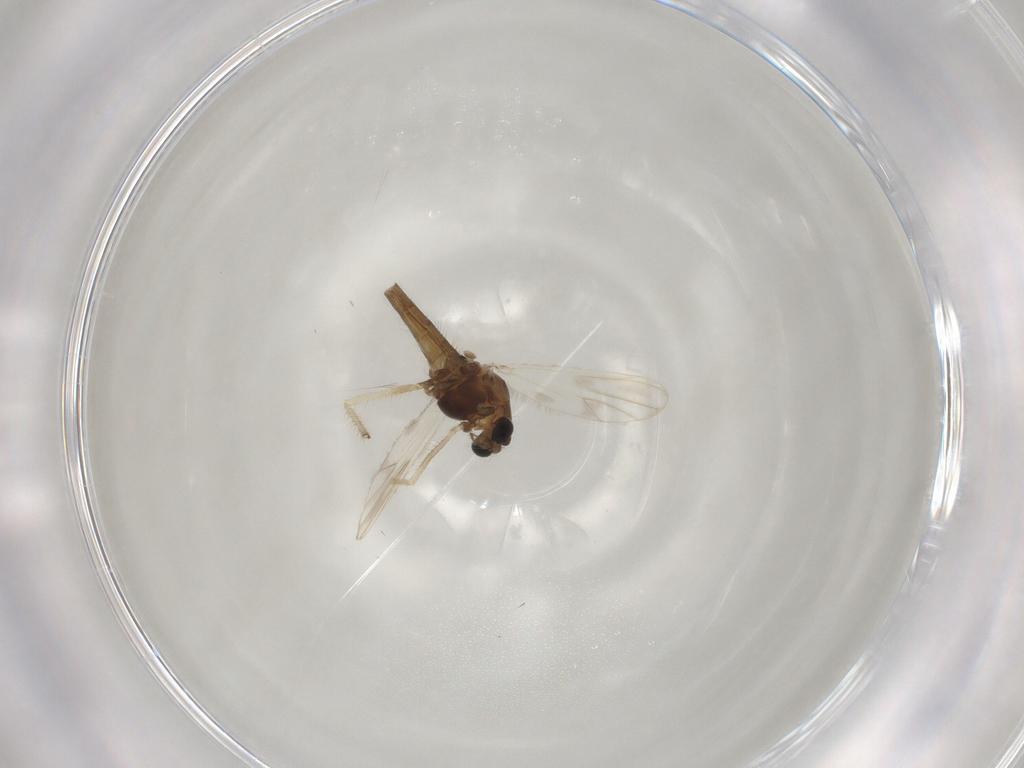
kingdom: Animalia
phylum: Arthropoda
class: Insecta
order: Diptera
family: Chironomidae
